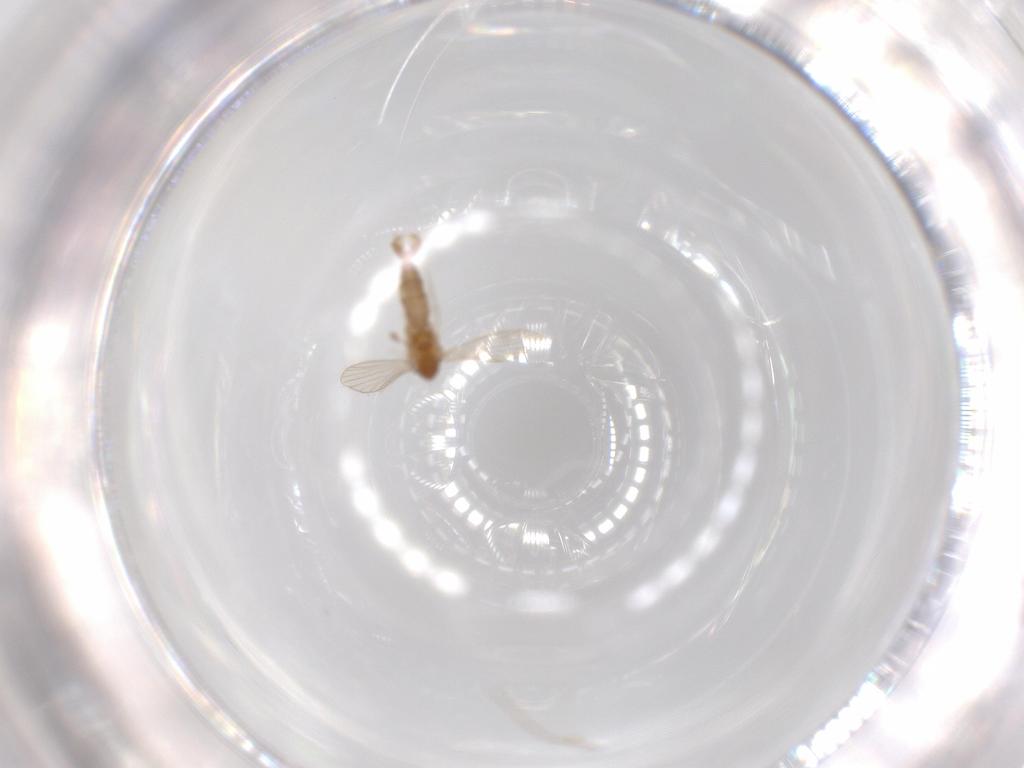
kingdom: Animalia
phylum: Arthropoda
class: Insecta
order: Diptera
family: Psychodidae
